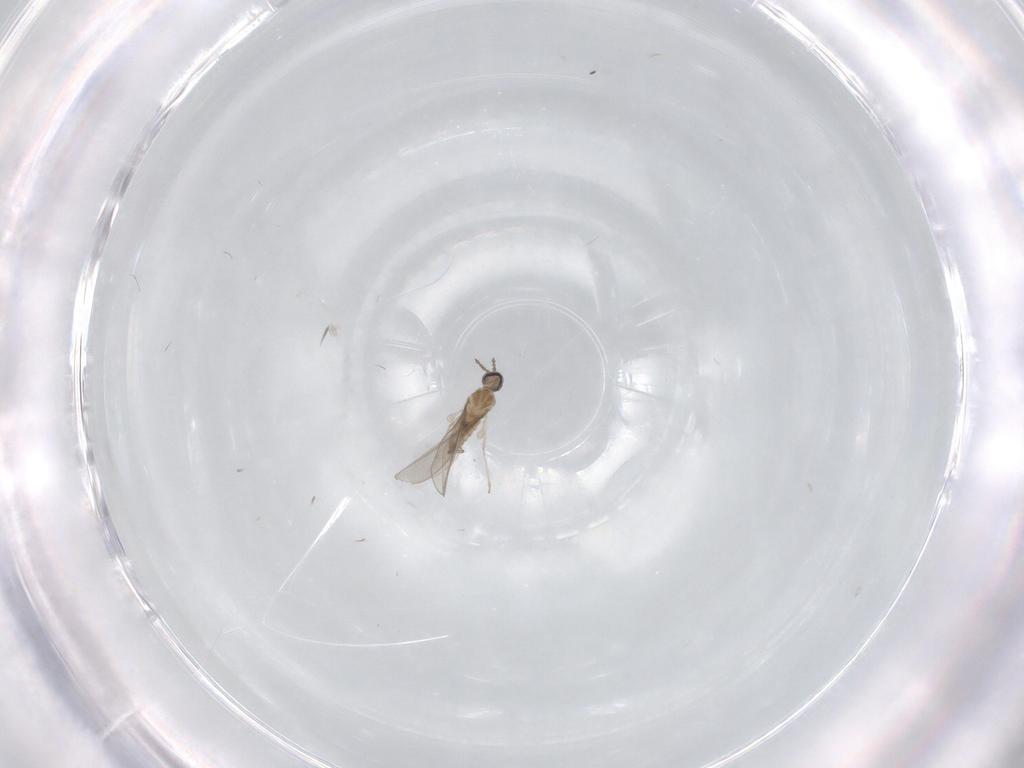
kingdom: Animalia
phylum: Arthropoda
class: Insecta
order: Diptera
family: Cecidomyiidae
